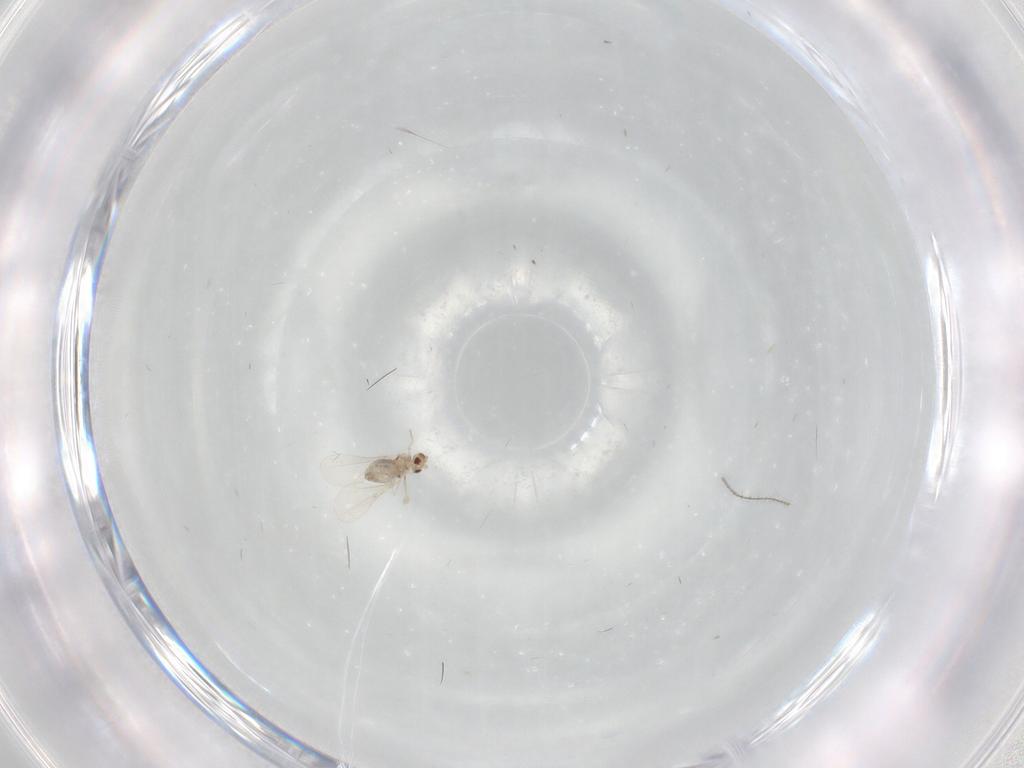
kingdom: Animalia
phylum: Arthropoda
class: Insecta
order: Diptera
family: Cecidomyiidae
